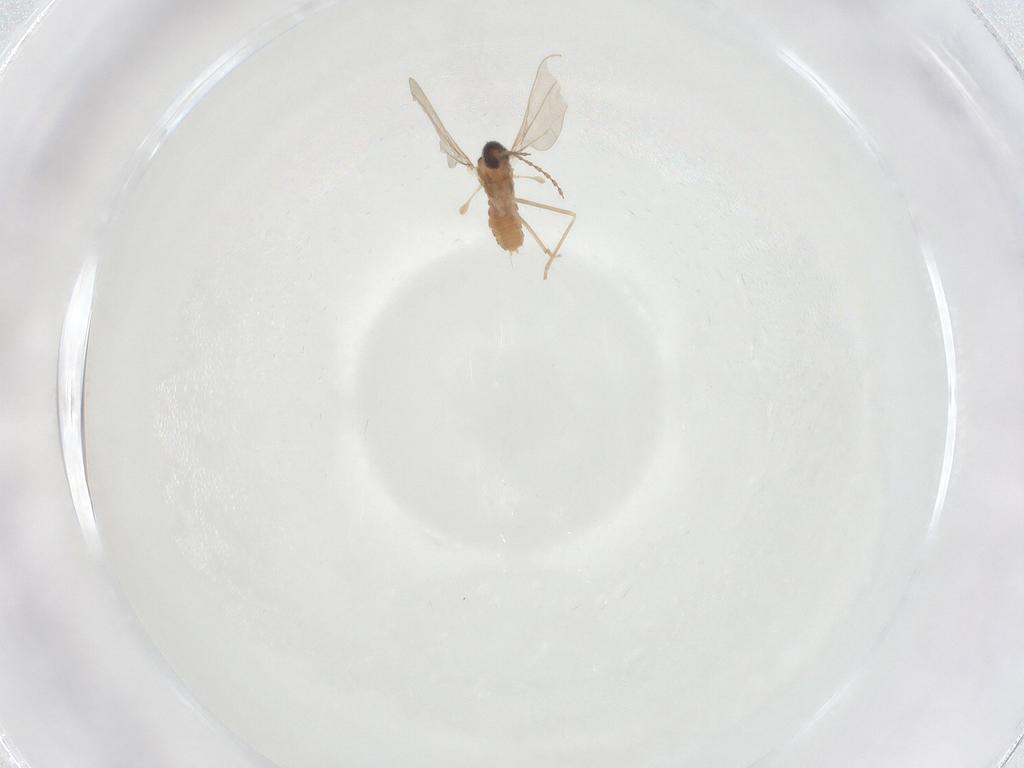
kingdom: Animalia
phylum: Arthropoda
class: Insecta
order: Diptera
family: Cecidomyiidae
